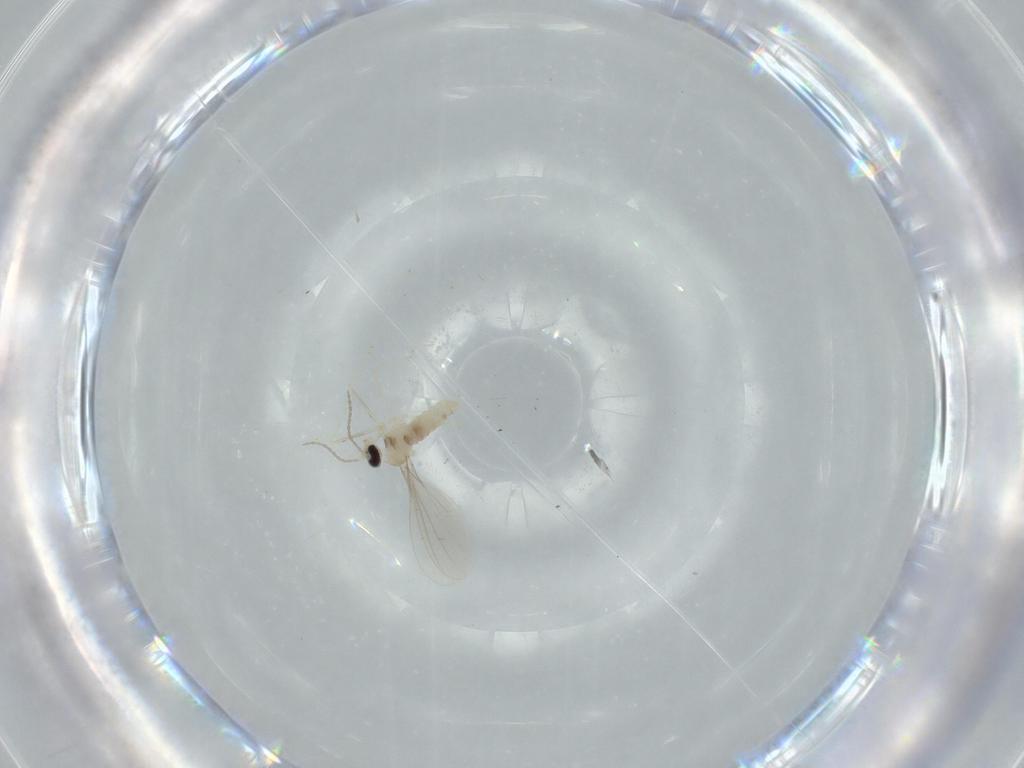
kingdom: Animalia
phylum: Arthropoda
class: Insecta
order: Diptera
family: Cecidomyiidae
